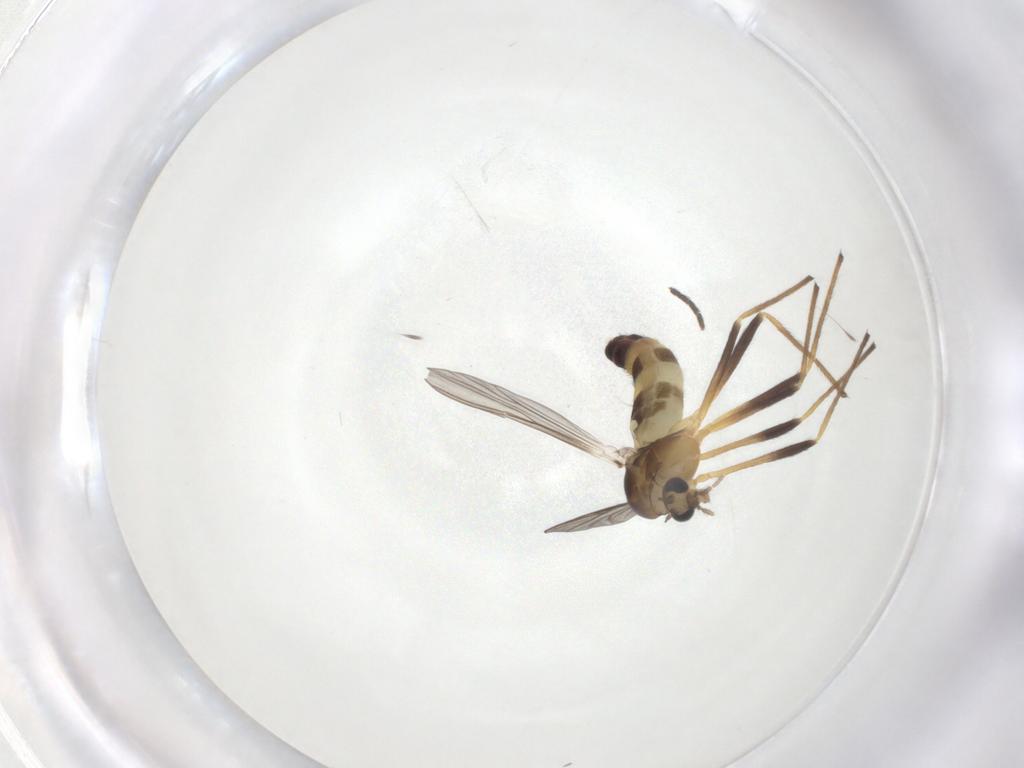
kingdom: Animalia
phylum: Arthropoda
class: Insecta
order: Diptera
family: Chironomidae
